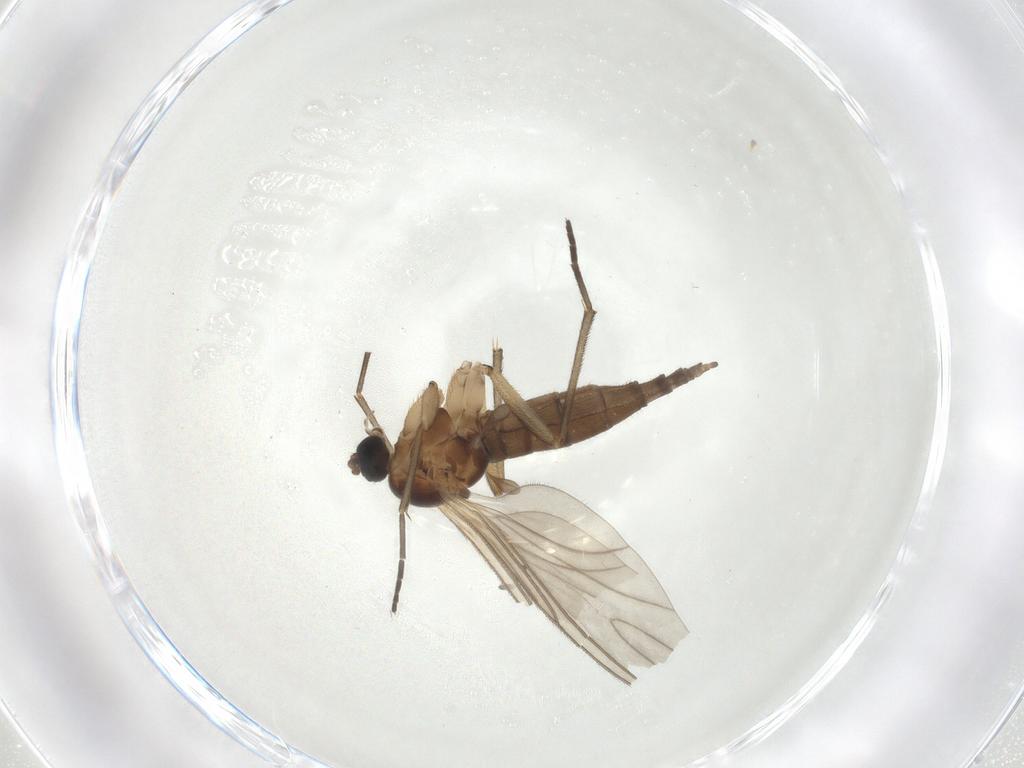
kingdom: Animalia
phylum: Arthropoda
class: Insecta
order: Diptera
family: Sciaridae
